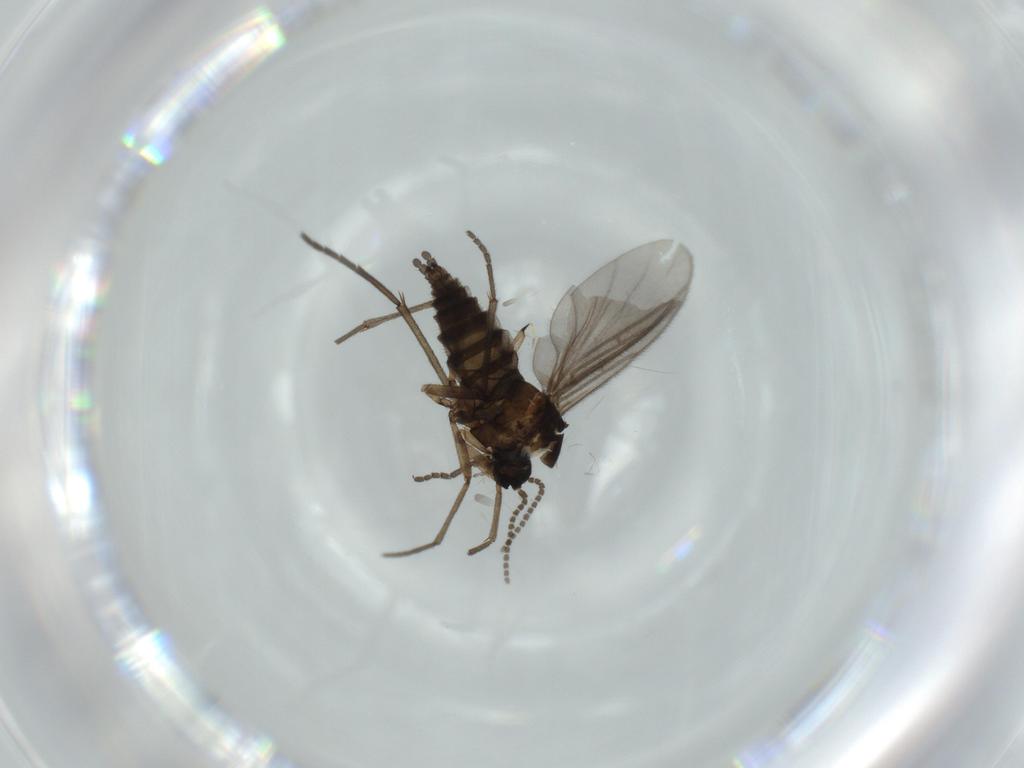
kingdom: Animalia
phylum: Arthropoda
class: Insecta
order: Diptera
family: Sciaridae
